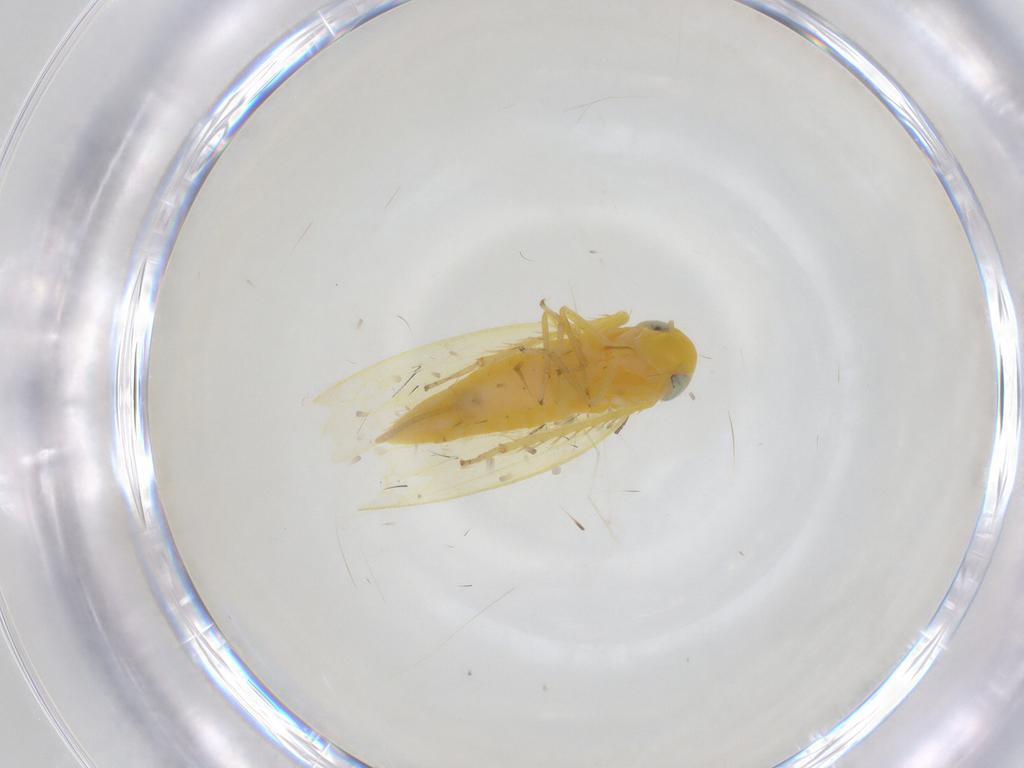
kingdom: Animalia
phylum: Arthropoda
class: Insecta
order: Hemiptera
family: Cicadellidae
